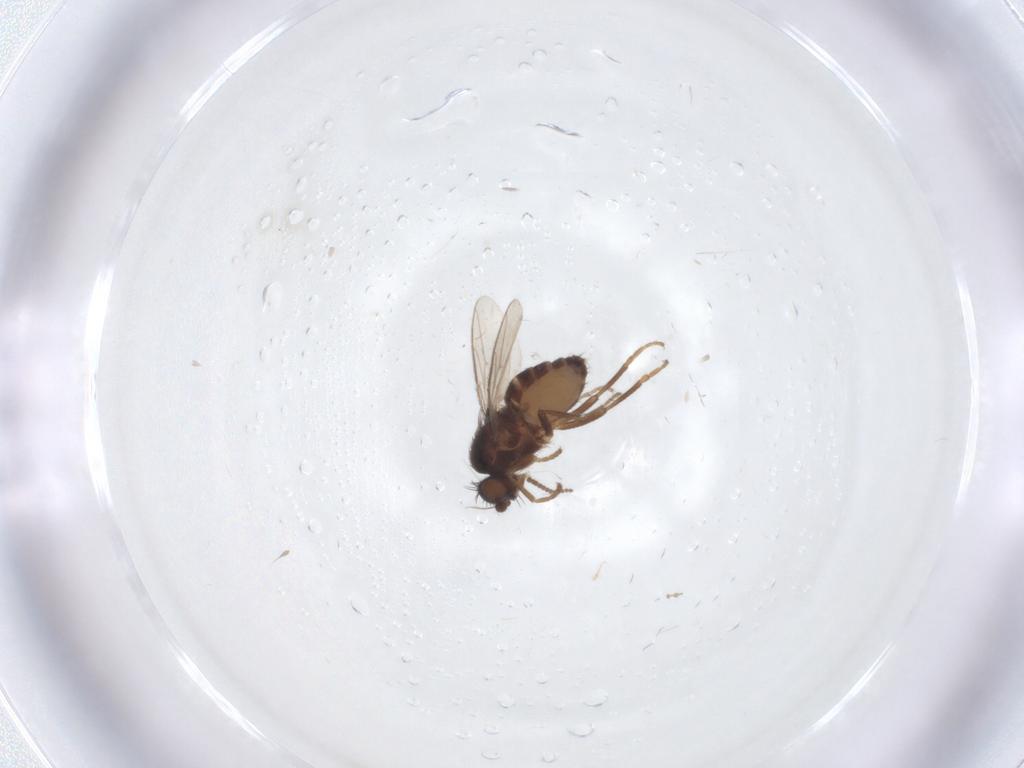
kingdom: Animalia
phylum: Arthropoda
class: Insecta
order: Diptera
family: Sphaeroceridae
